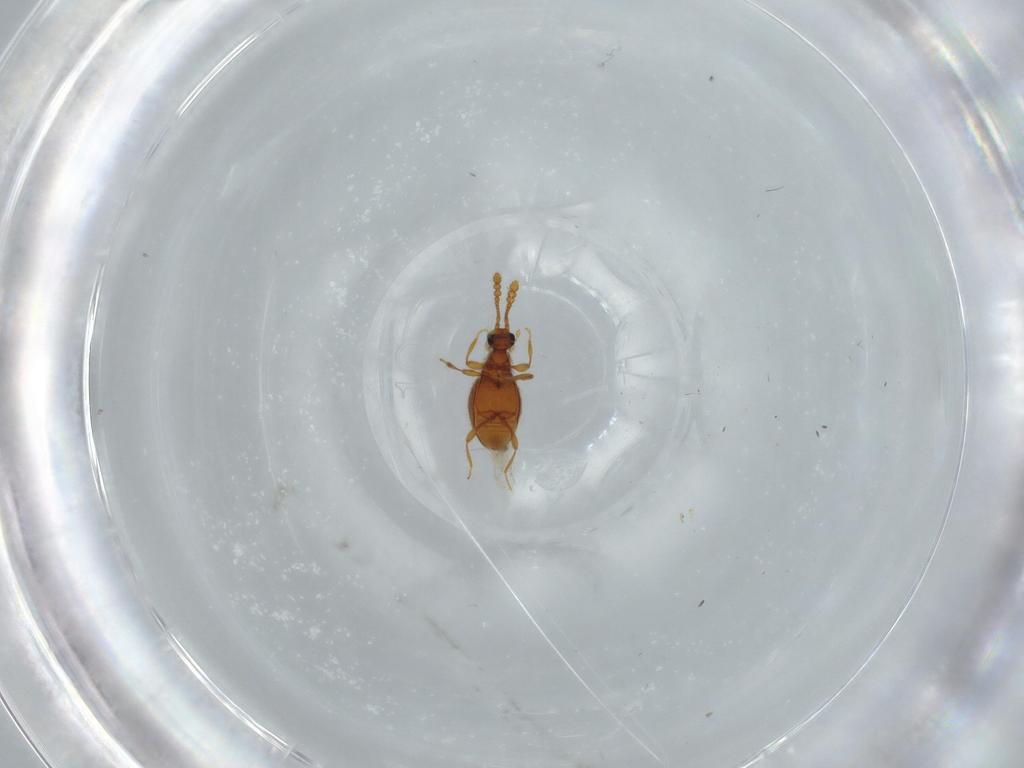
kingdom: Animalia
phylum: Arthropoda
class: Insecta
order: Coleoptera
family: Staphylinidae
